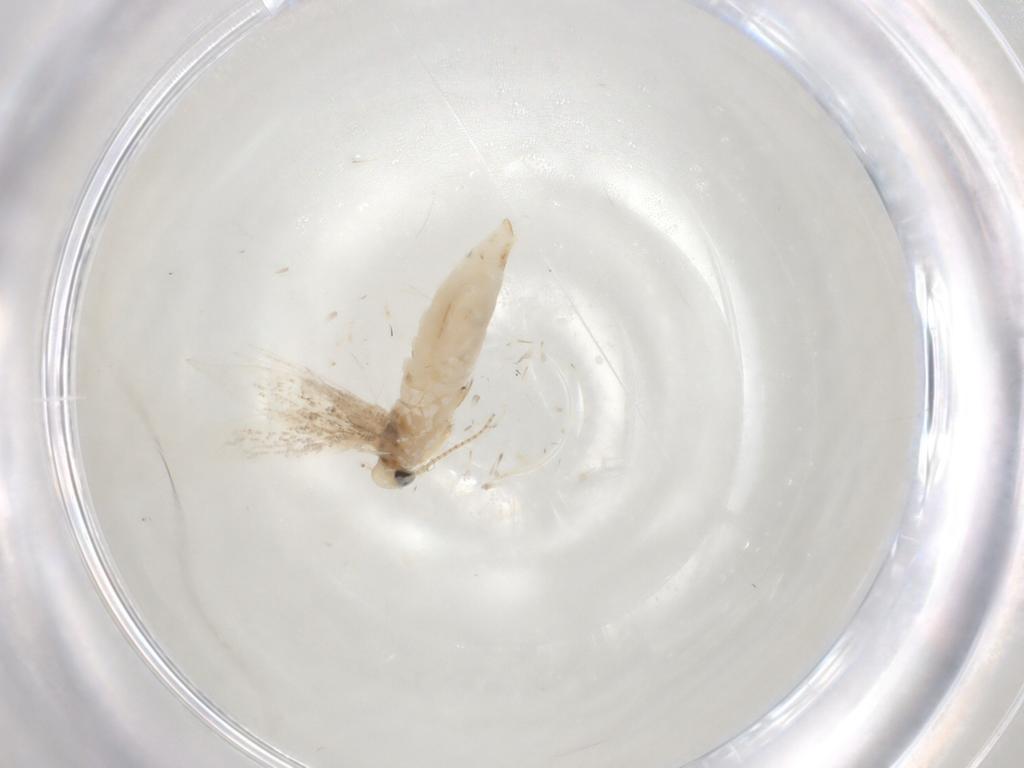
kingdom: Animalia
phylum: Arthropoda
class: Insecta
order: Lepidoptera
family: Gracillariidae
